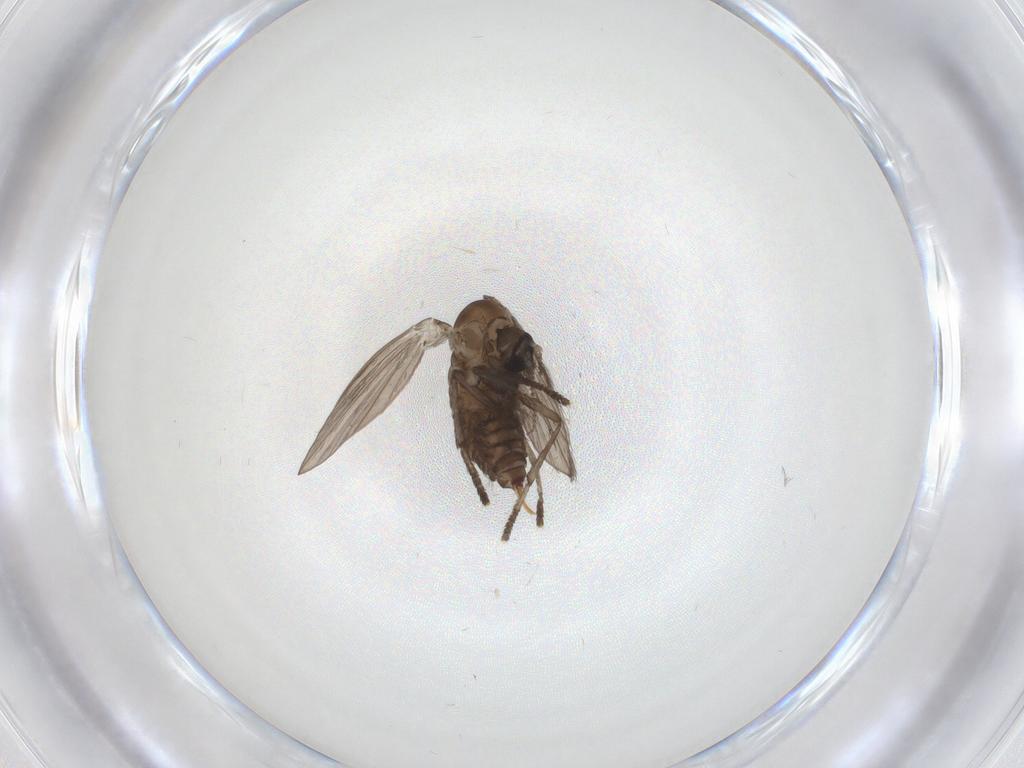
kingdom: Animalia
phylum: Arthropoda
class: Insecta
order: Diptera
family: Psychodidae
